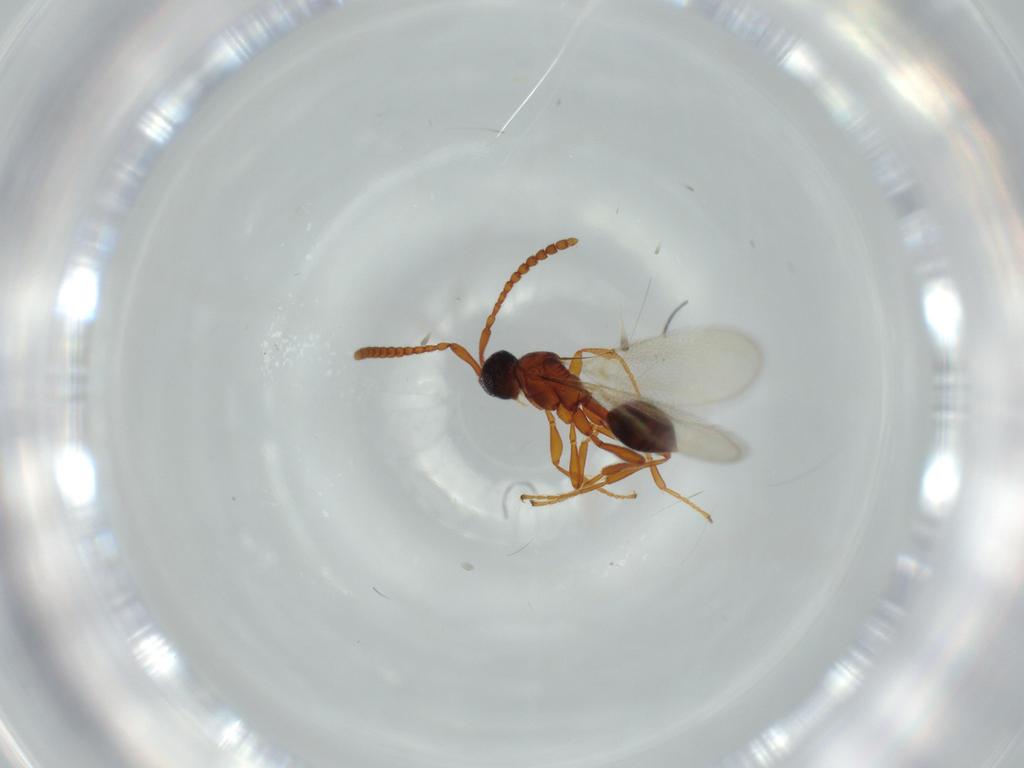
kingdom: Animalia
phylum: Arthropoda
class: Insecta
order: Hymenoptera
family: Diapriidae
